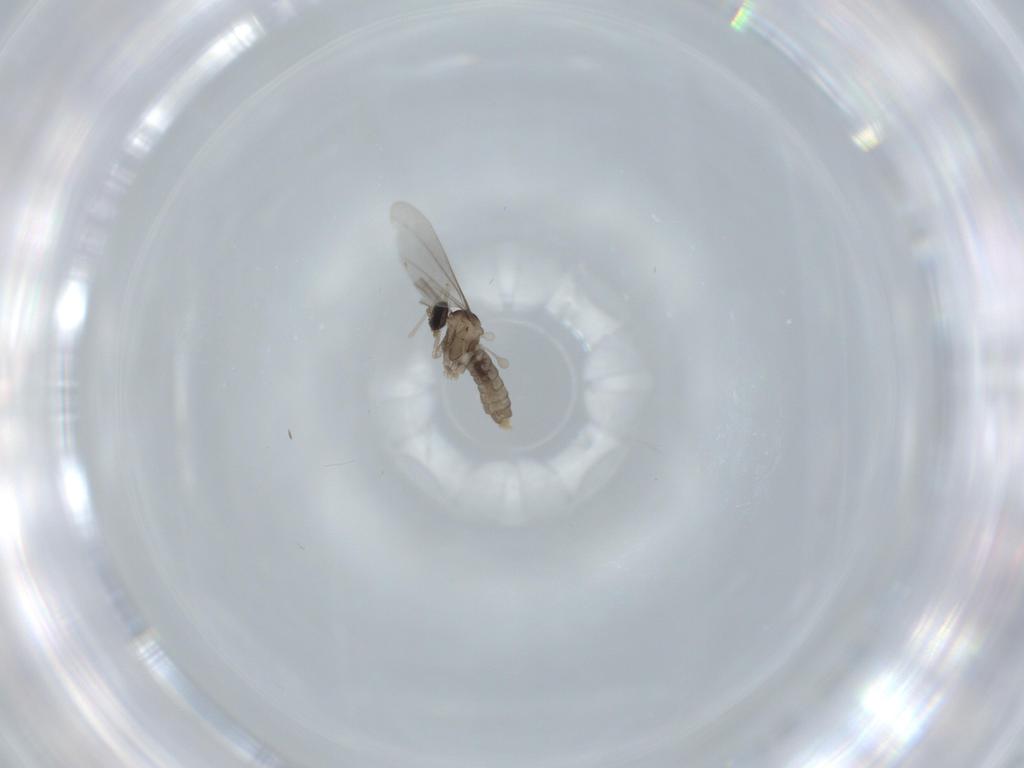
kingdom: Animalia
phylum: Arthropoda
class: Insecta
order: Diptera
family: Cecidomyiidae
